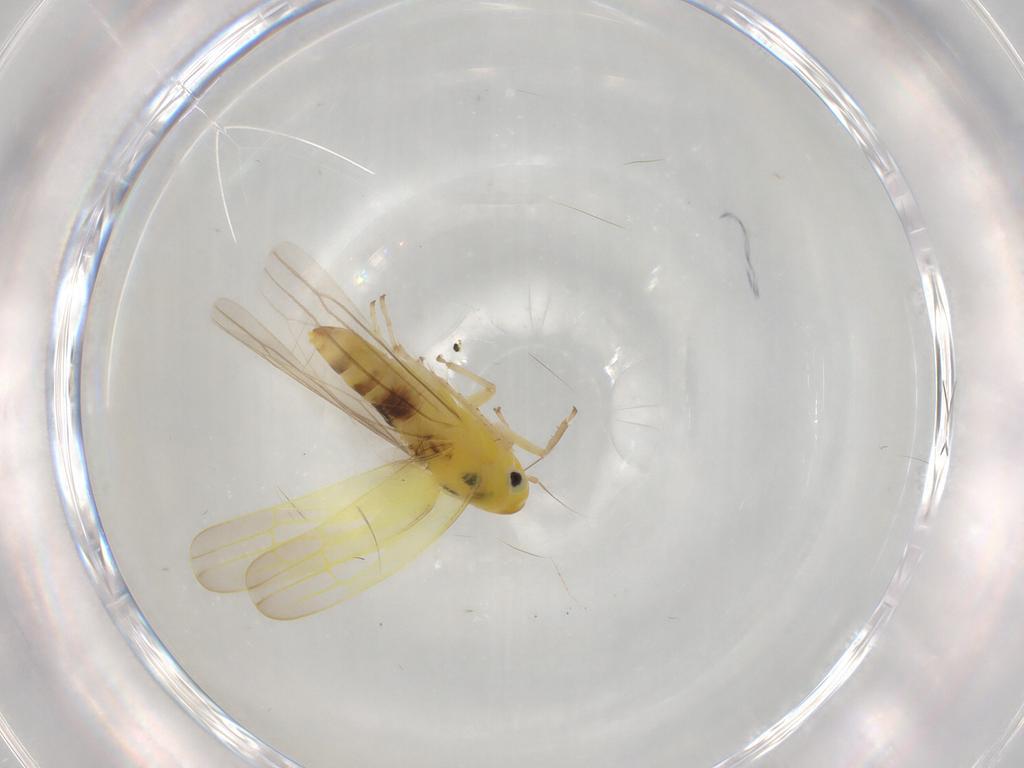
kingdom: Animalia
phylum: Arthropoda
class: Insecta
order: Hemiptera
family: Cicadellidae
